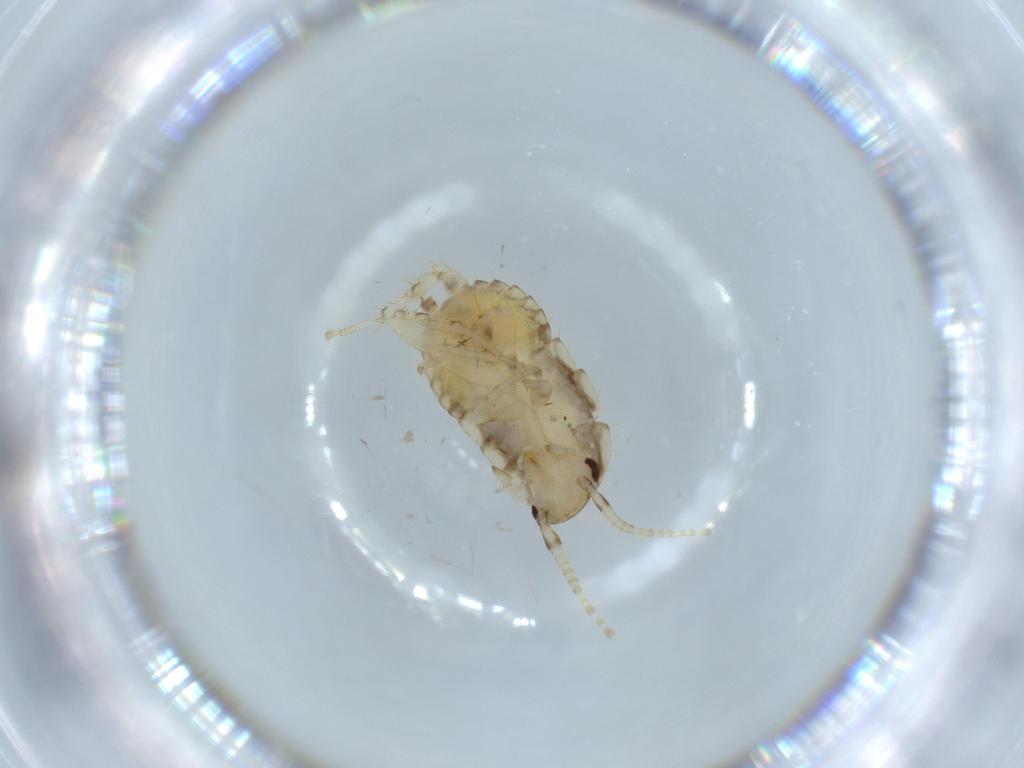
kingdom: Animalia
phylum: Arthropoda
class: Insecta
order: Blattodea
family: Ectobiidae
